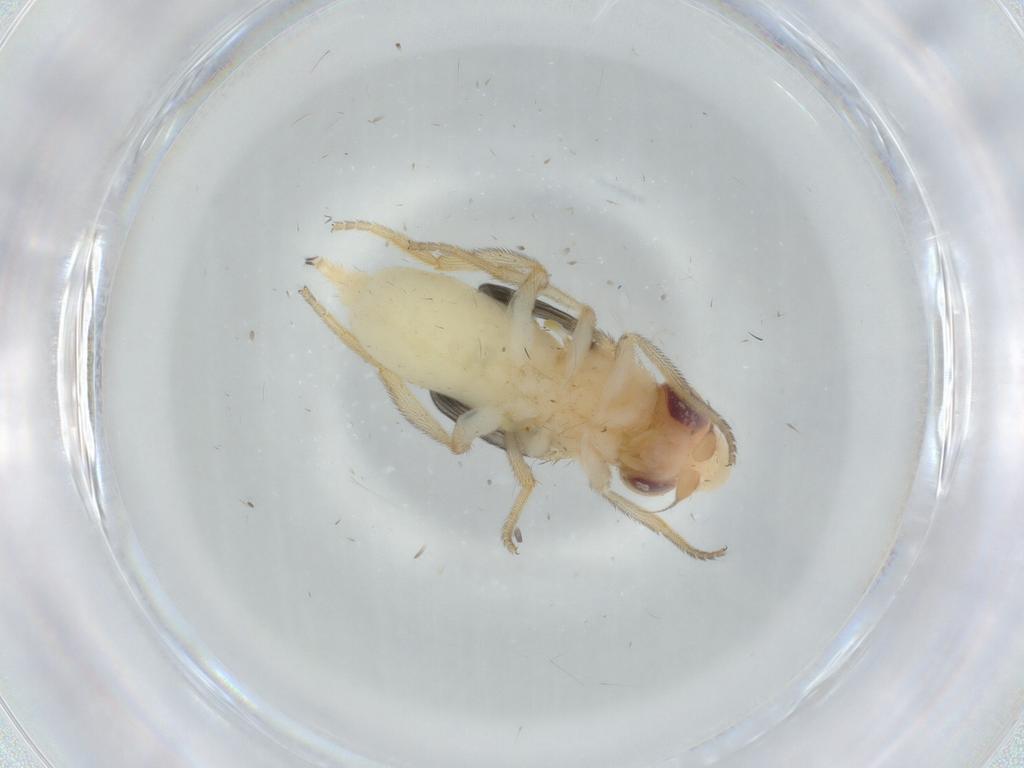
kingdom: Animalia
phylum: Arthropoda
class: Insecta
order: Diptera
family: Chloropidae
